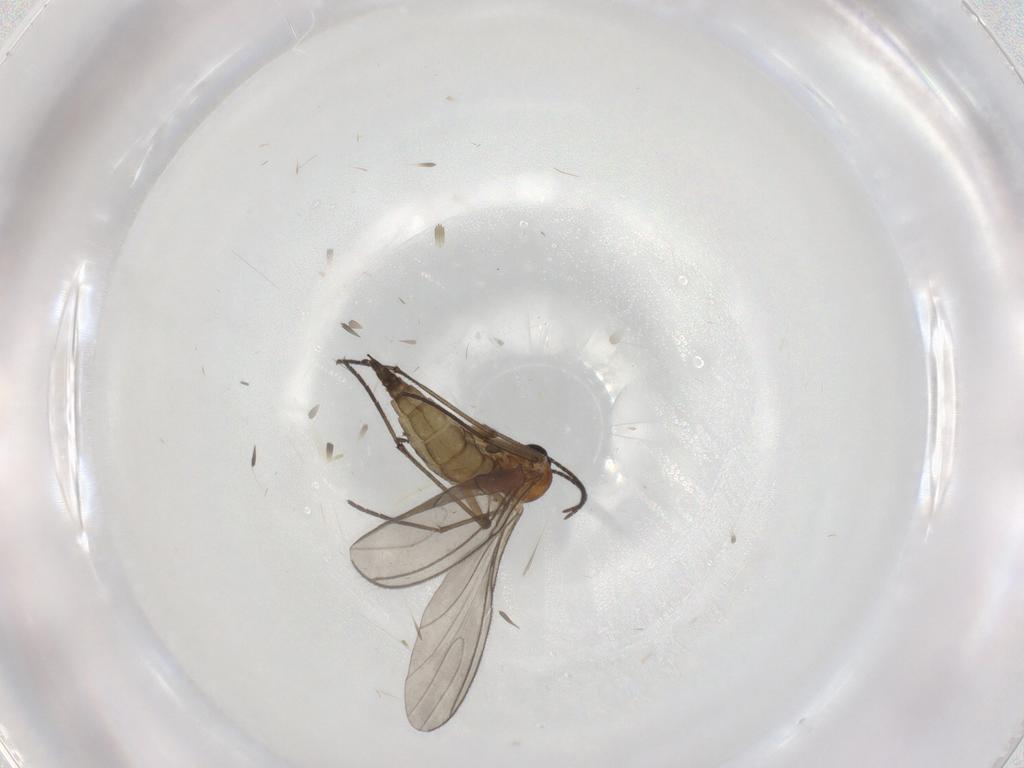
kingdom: Animalia
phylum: Arthropoda
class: Insecta
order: Diptera
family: Sciaridae
